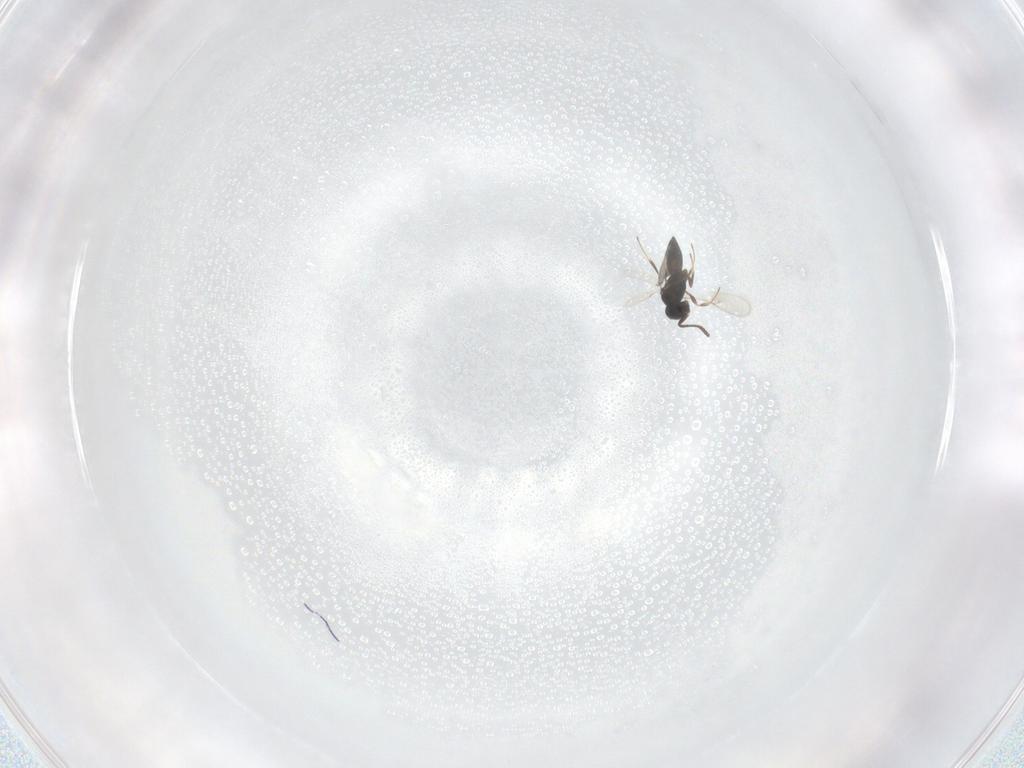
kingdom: Animalia
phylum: Arthropoda
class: Insecta
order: Hymenoptera
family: Scelionidae
